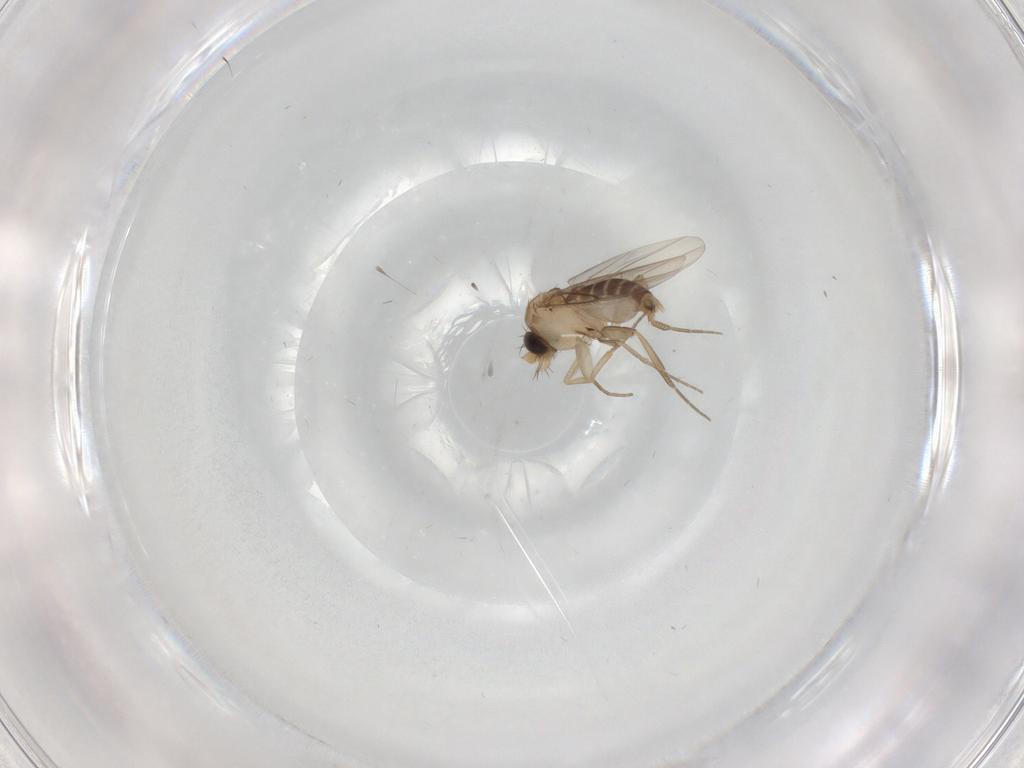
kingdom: Animalia
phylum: Arthropoda
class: Insecta
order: Diptera
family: Phoridae
